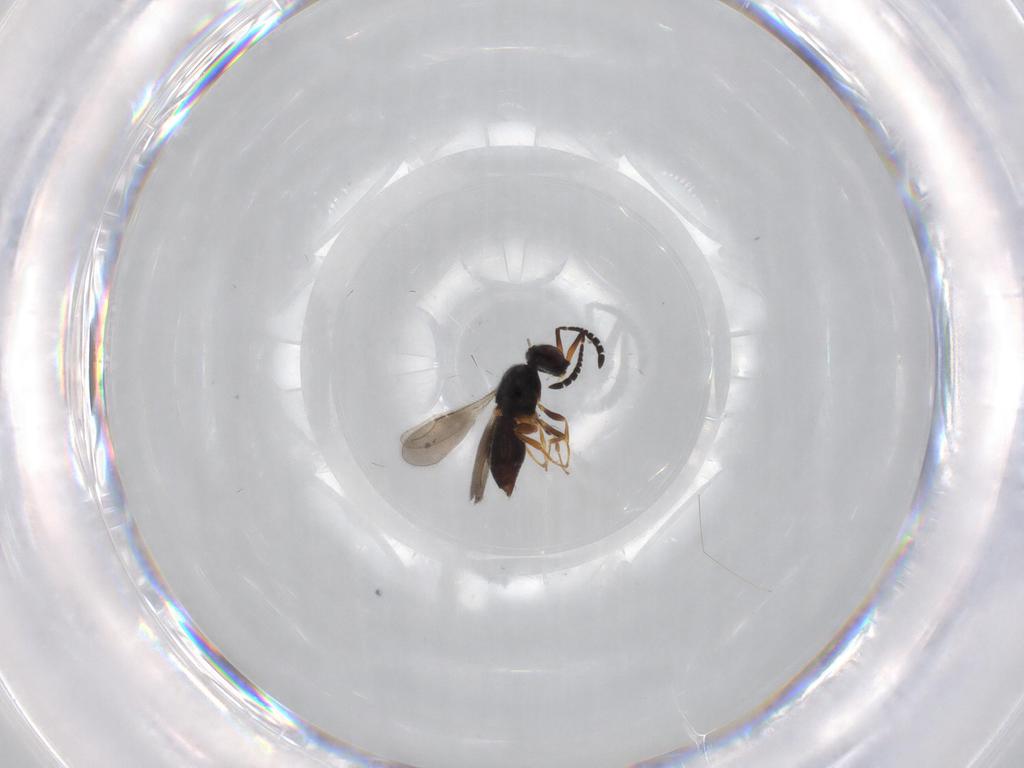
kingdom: Animalia
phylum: Arthropoda
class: Insecta
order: Hymenoptera
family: Ceraphronidae
